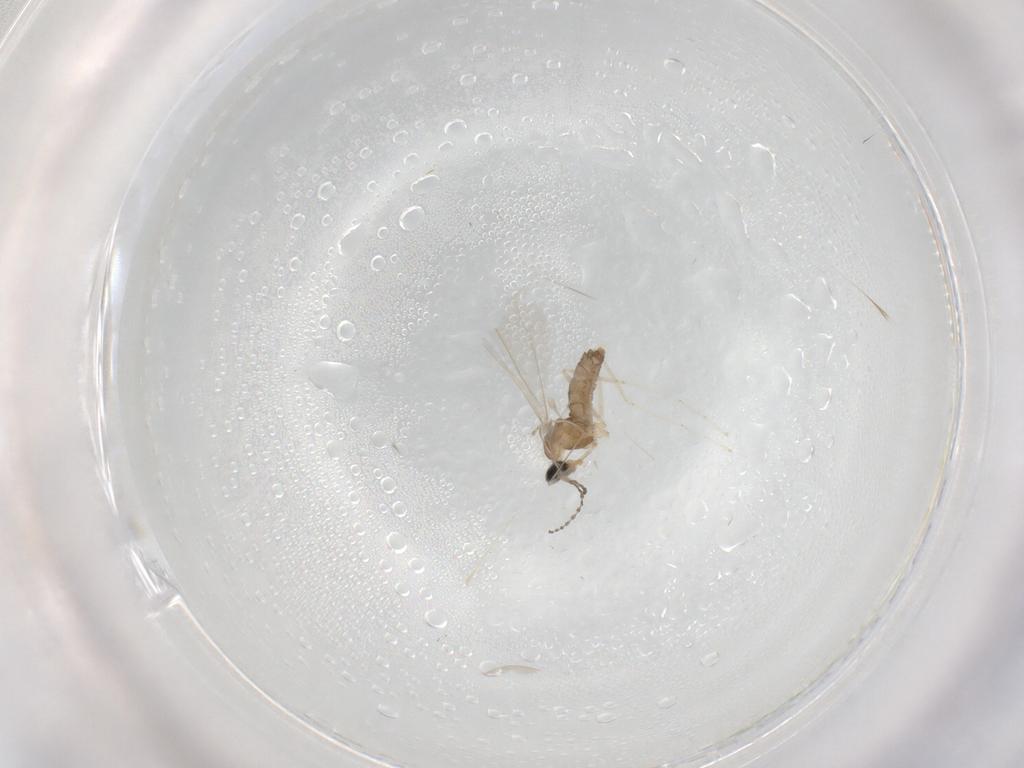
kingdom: Animalia
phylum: Arthropoda
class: Insecta
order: Diptera
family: Cecidomyiidae
